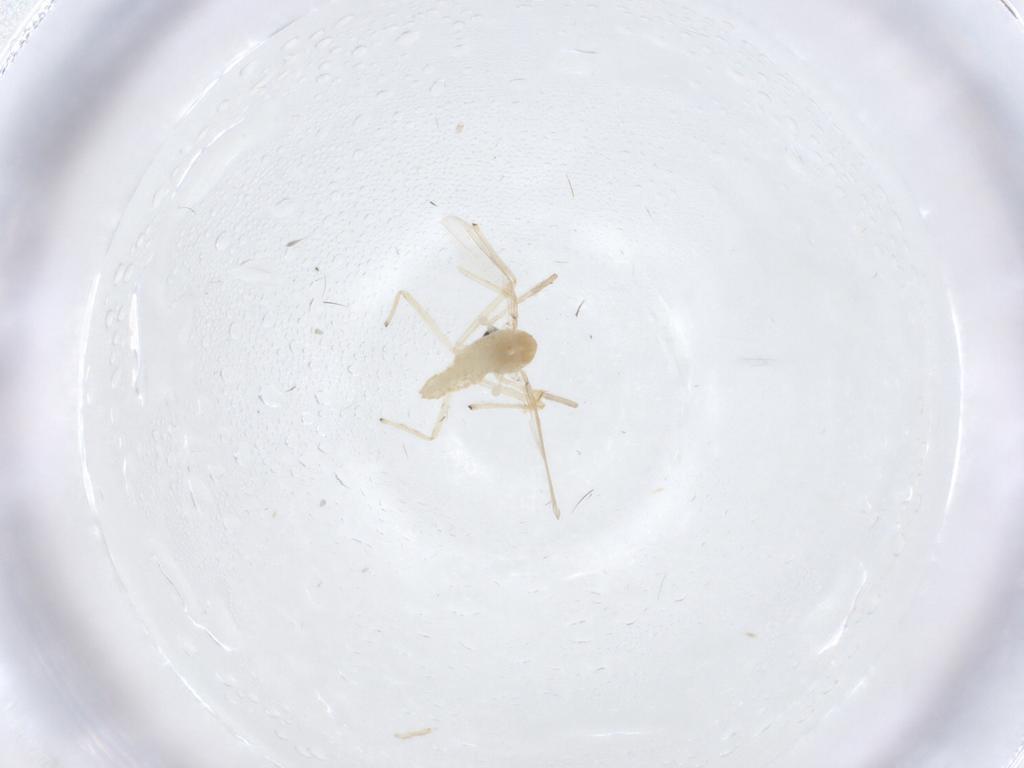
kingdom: Animalia
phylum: Arthropoda
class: Insecta
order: Diptera
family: Chironomidae
